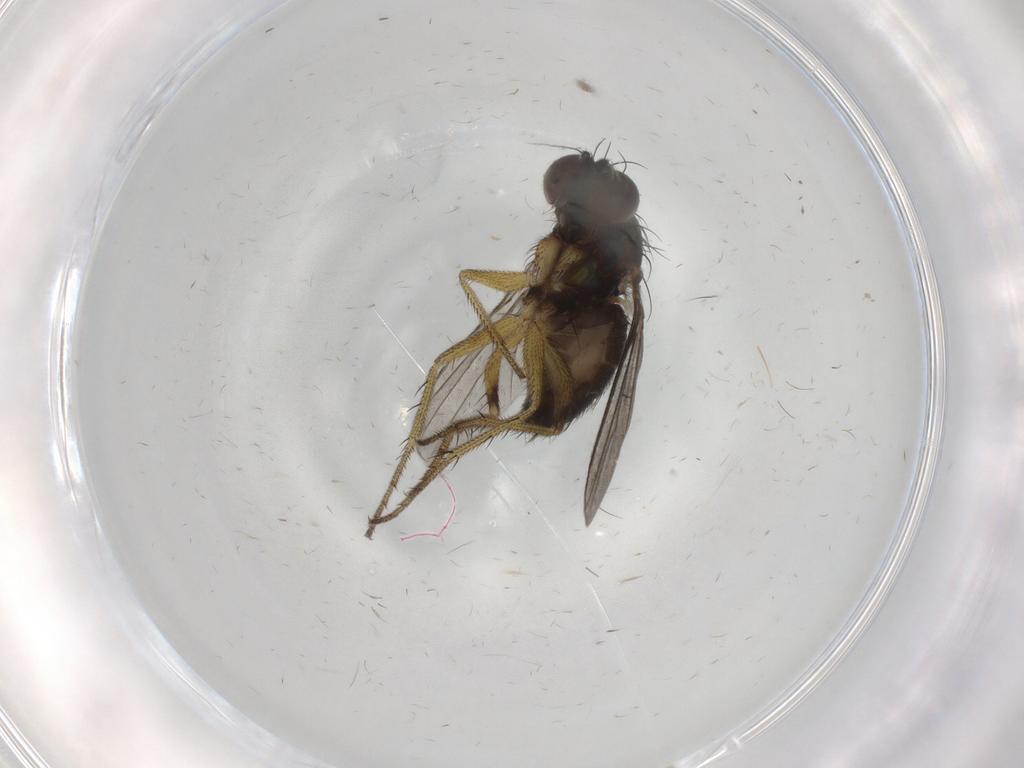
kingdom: Animalia
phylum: Arthropoda
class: Insecta
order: Diptera
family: Dolichopodidae
